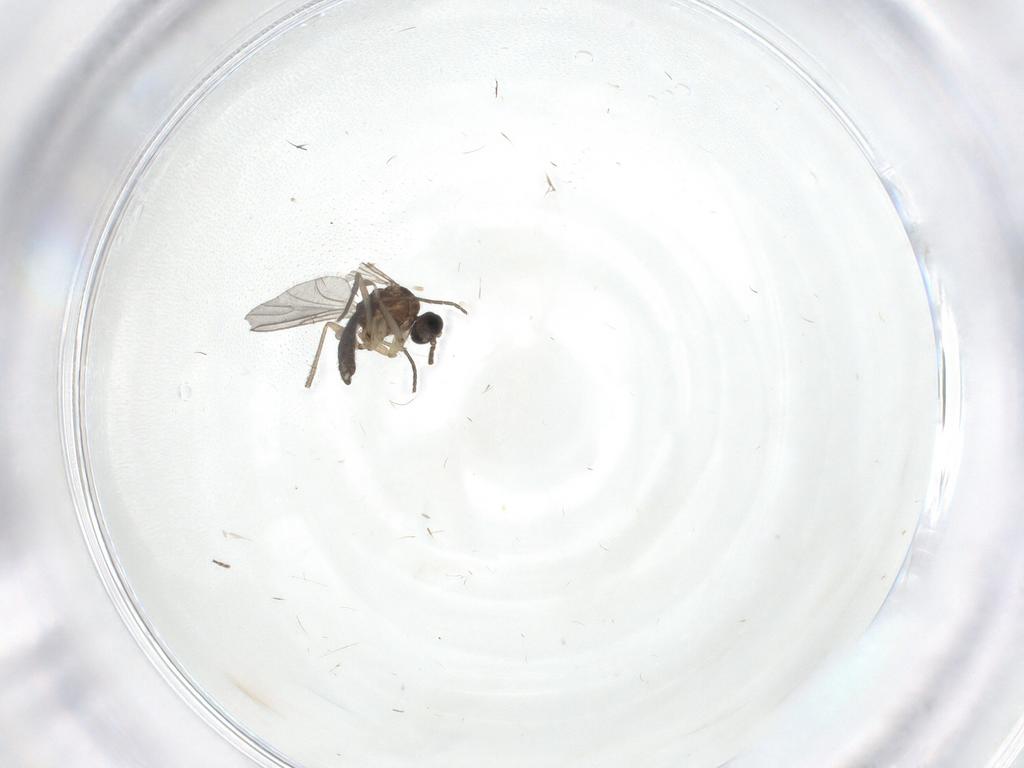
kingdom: Animalia
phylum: Arthropoda
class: Insecta
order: Diptera
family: Sciaridae
